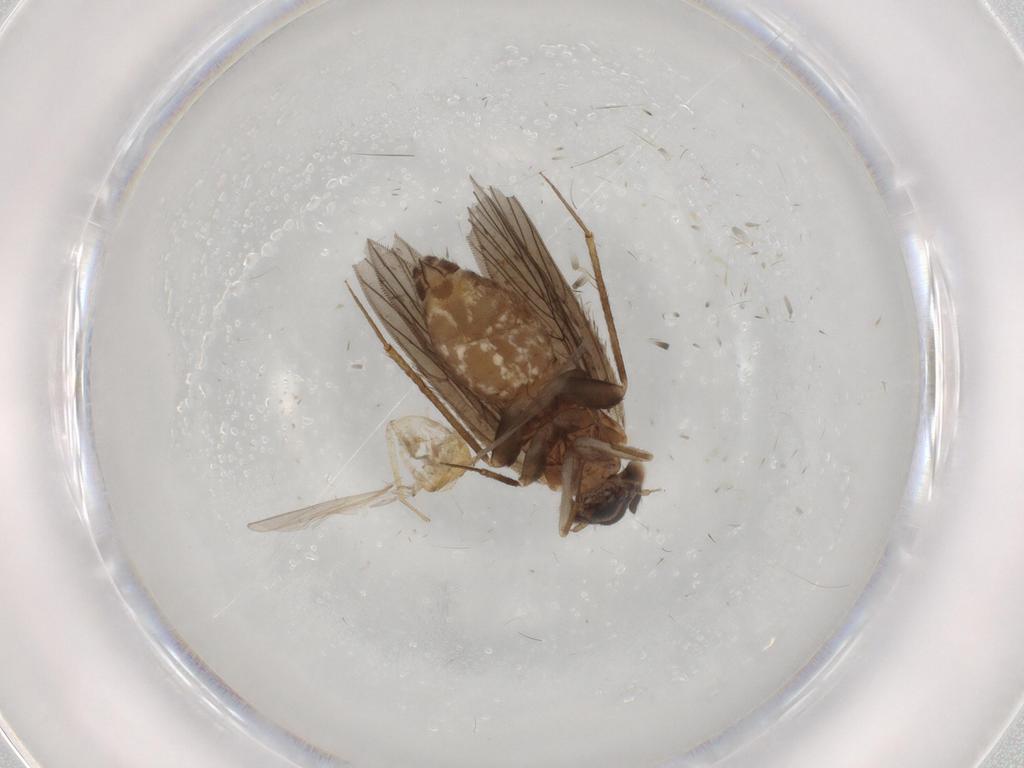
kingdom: Animalia
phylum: Arthropoda
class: Insecta
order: Psocodea
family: Lepidopsocidae
